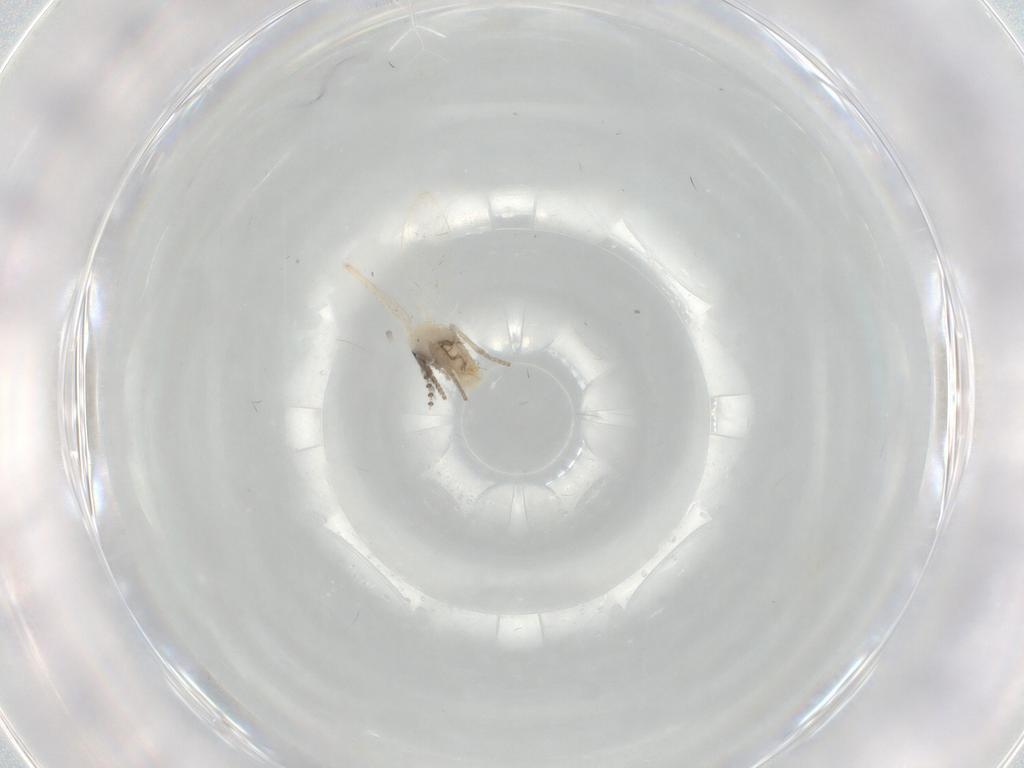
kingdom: Animalia
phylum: Arthropoda
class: Insecta
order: Diptera
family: Psychodidae
